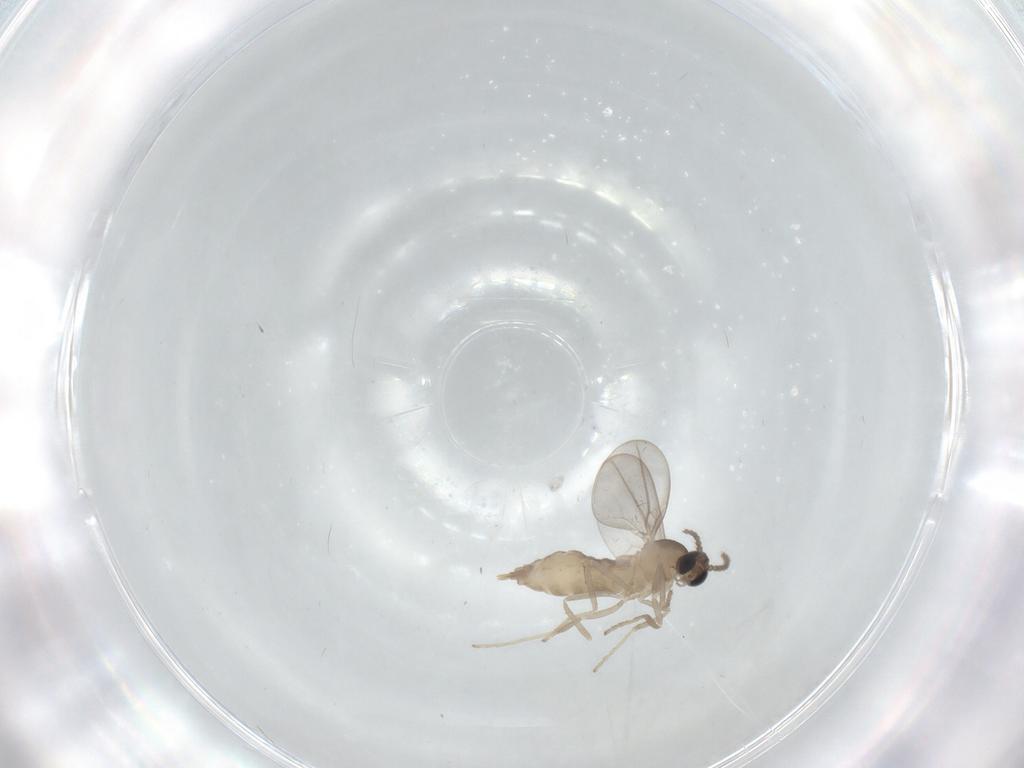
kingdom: Animalia
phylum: Arthropoda
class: Insecta
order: Diptera
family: Cecidomyiidae
